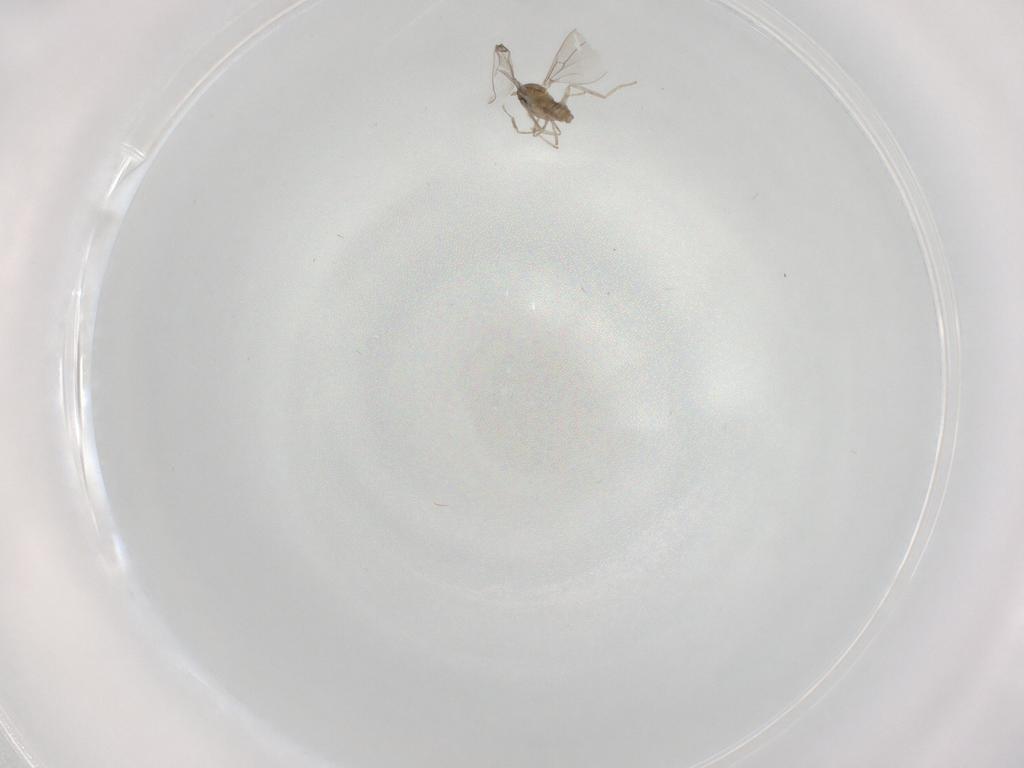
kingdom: Animalia
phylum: Arthropoda
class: Insecta
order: Diptera
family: Cecidomyiidae
